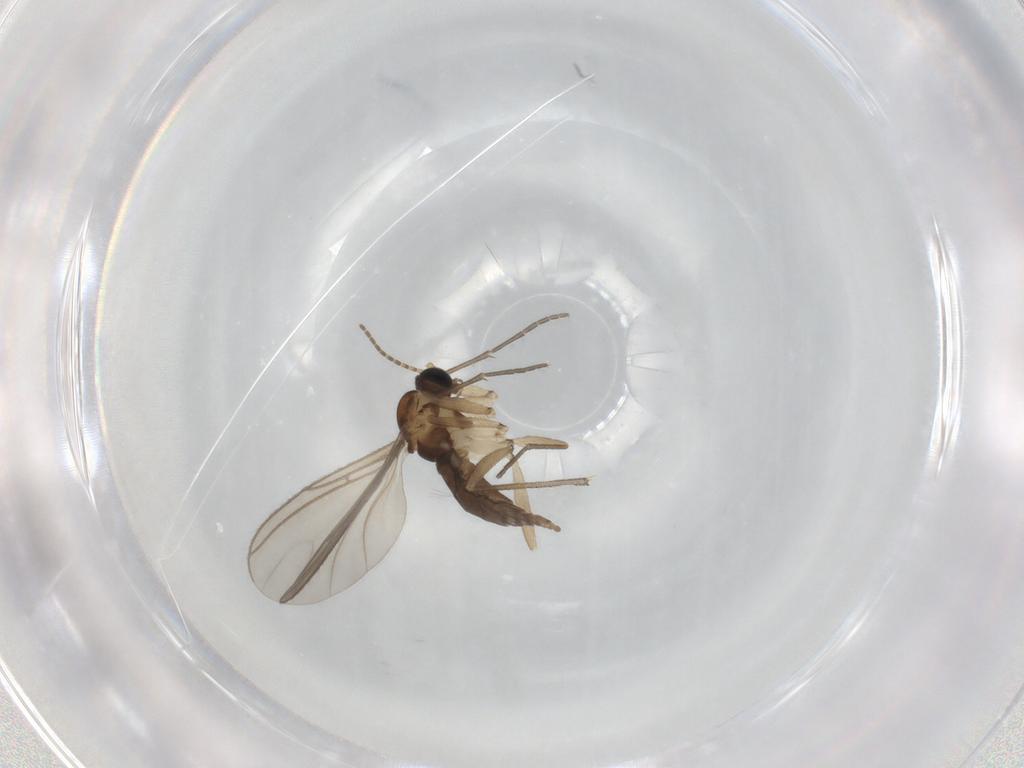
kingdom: Animalia
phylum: Arthropoda
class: Insecta
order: Diptera
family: Sciaridae
